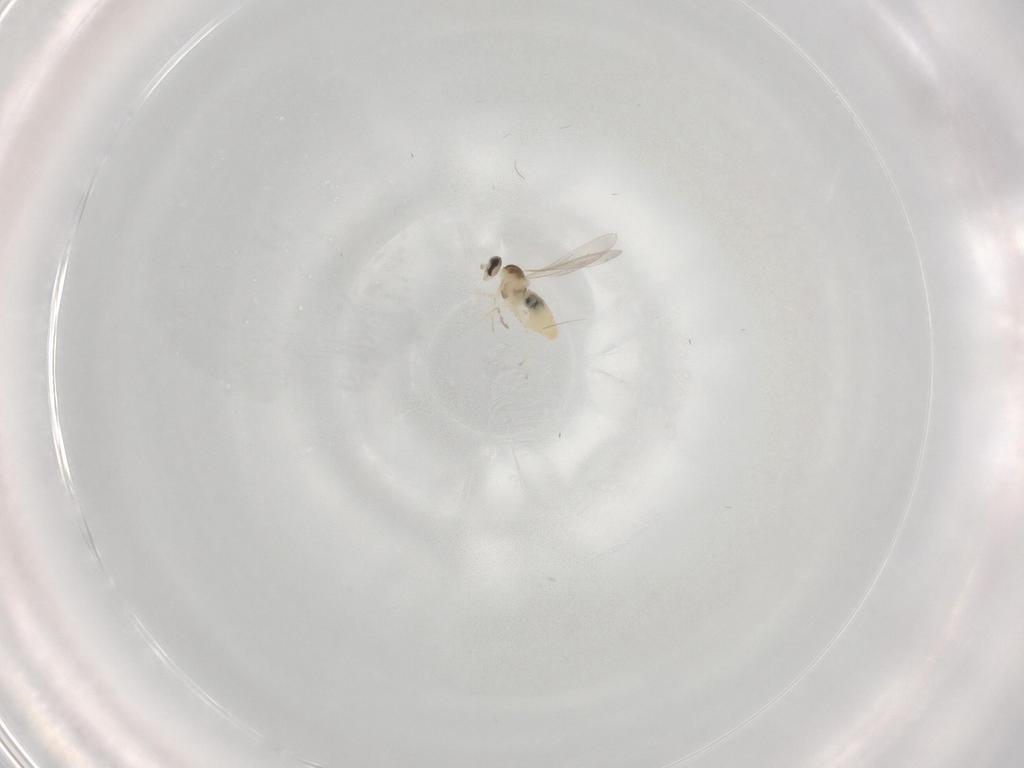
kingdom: Animalia
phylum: Arthropoda
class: Insecta
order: Diptera
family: Cecidomyiidae
